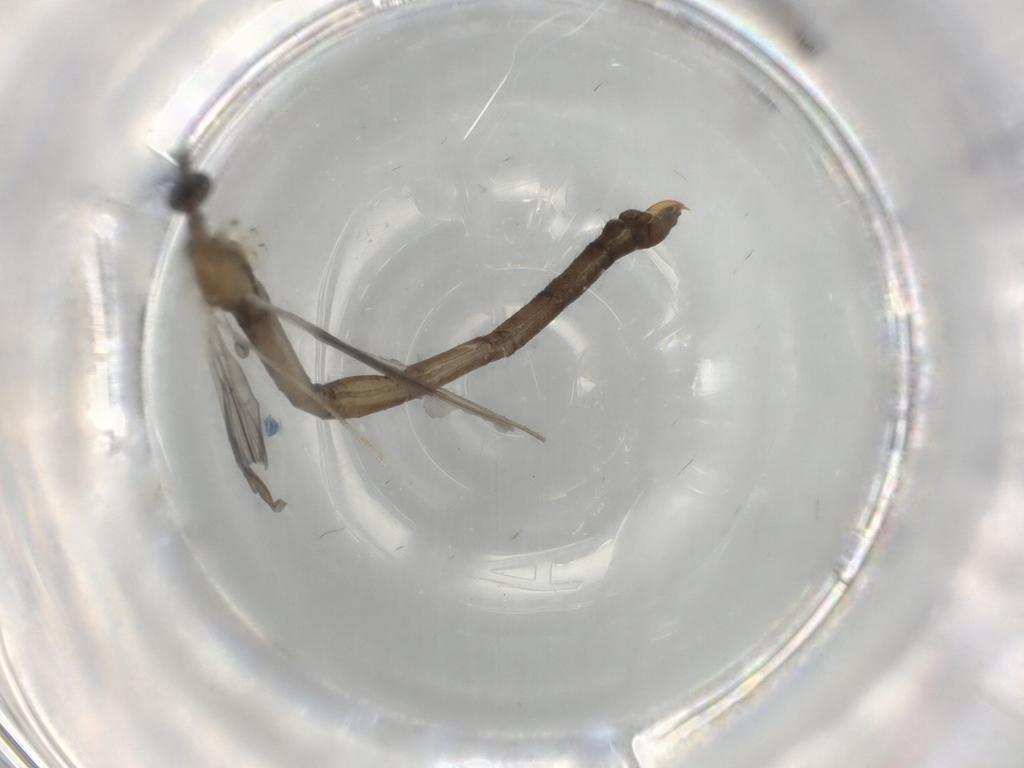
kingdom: Animalia
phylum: Arthropoda
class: Insecta
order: Diptera
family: Limoniidae
